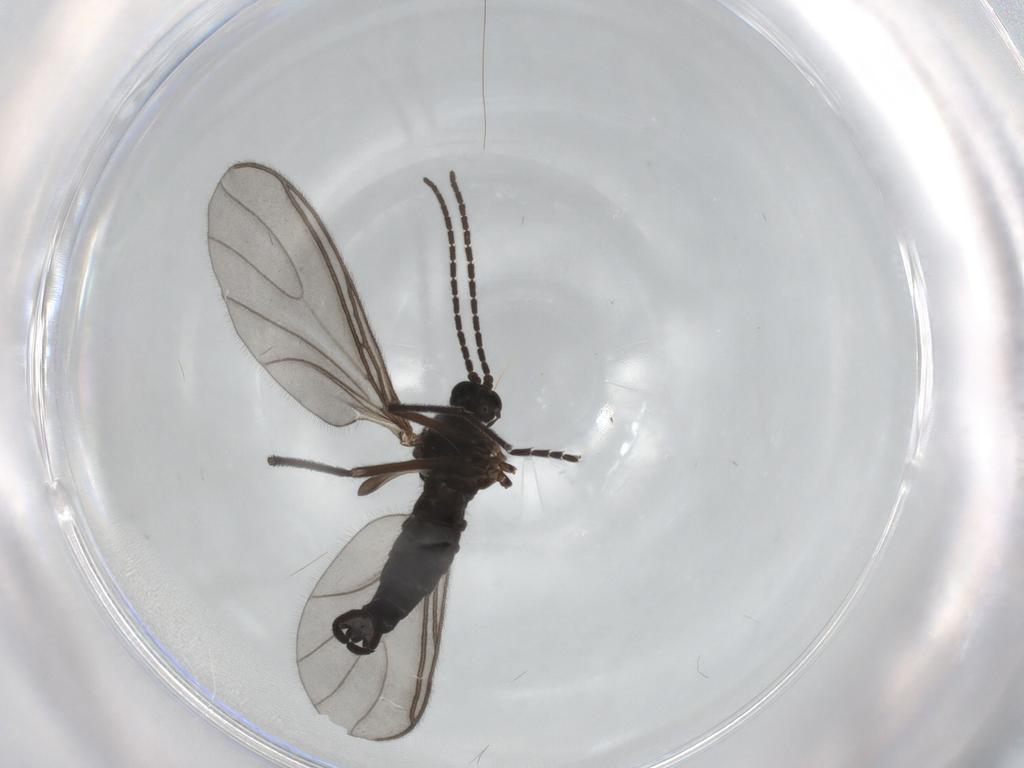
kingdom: Animalia
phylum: Arthropoda
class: Insecta
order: Diptera
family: Sciaridae
